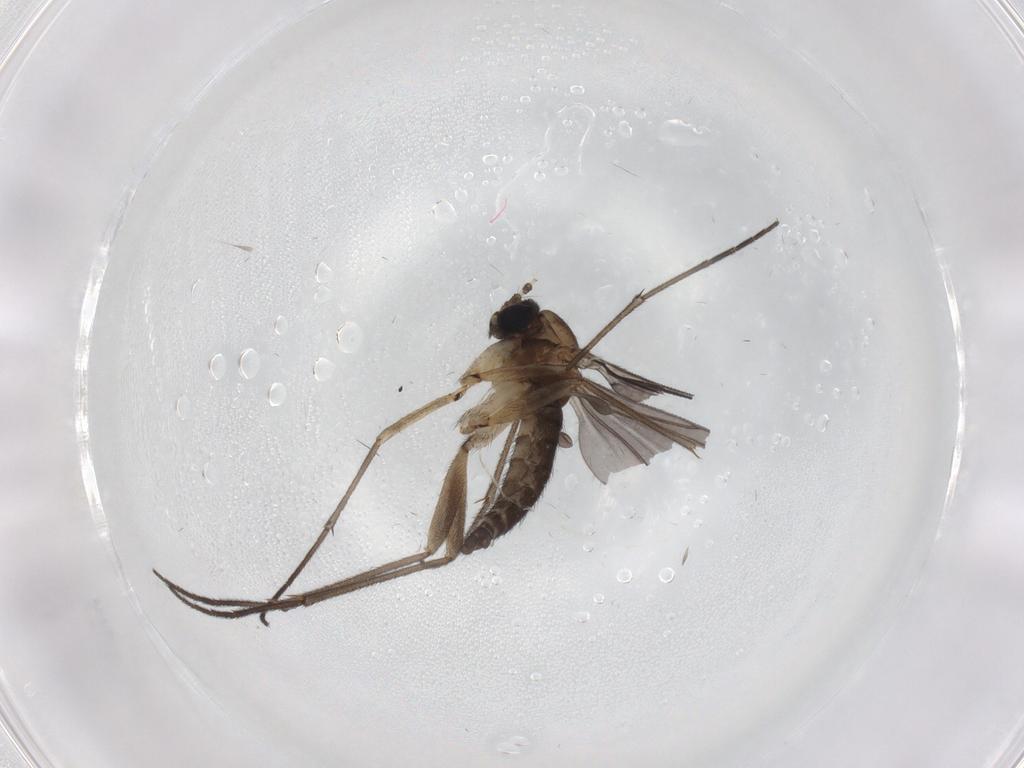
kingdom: Animalia
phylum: Arthropoda
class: Insecta
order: Diptera
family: Sciaridae
